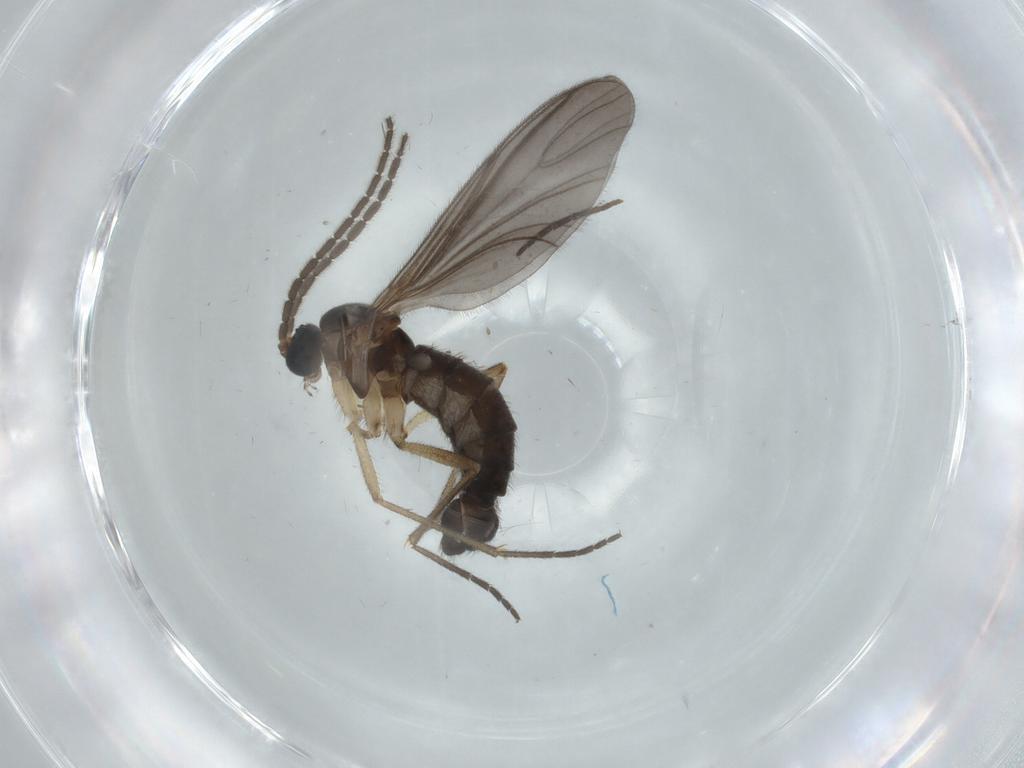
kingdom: Animalia
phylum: Arthropoda
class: Insecta
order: Diptera
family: Sciaridae
